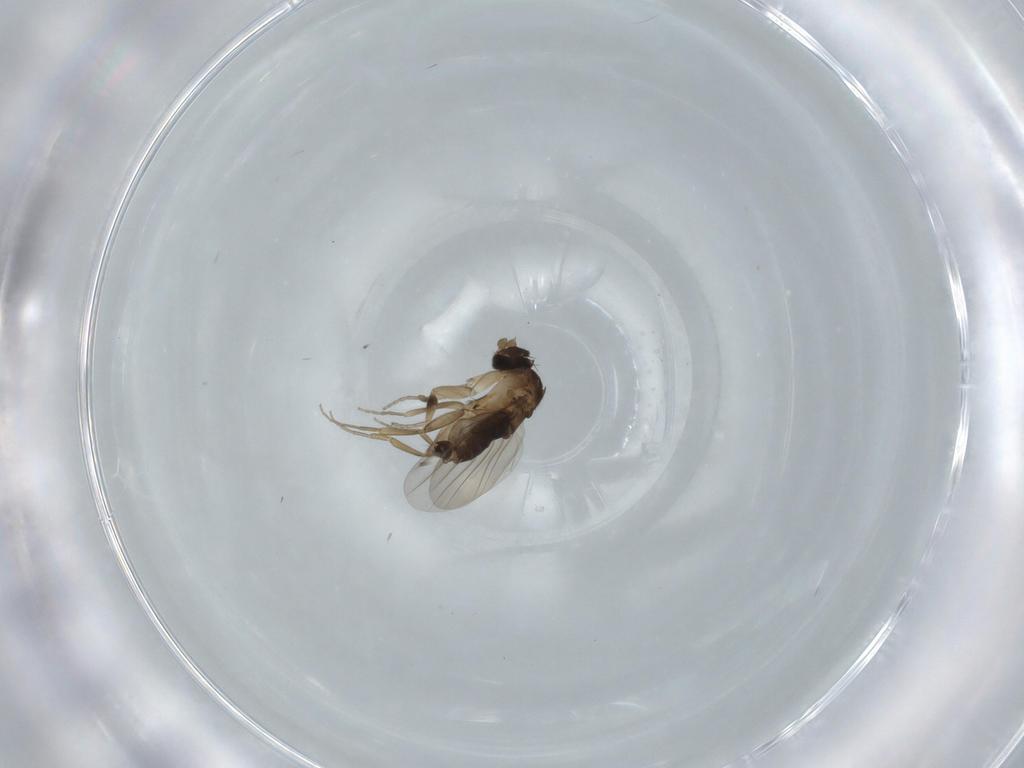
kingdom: Animalia
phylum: Arthropoda
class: Insecta
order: Diptera
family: Phoridae
